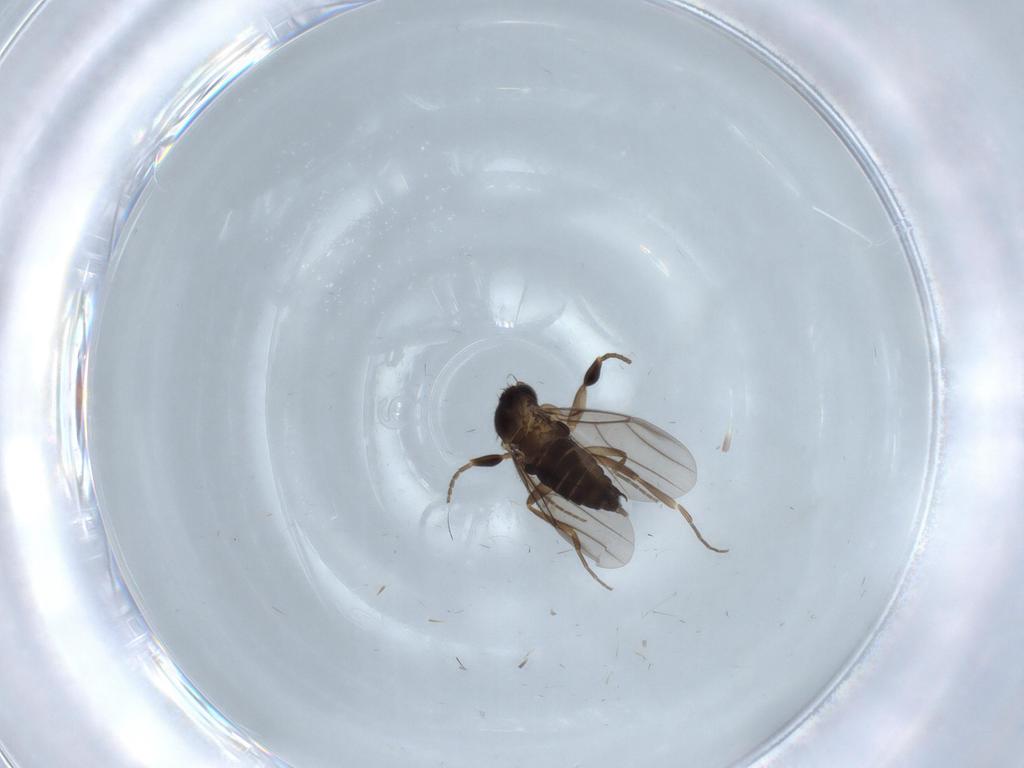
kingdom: Animalia
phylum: Arthropoda
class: Insecta
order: Diptera
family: Phoridae
